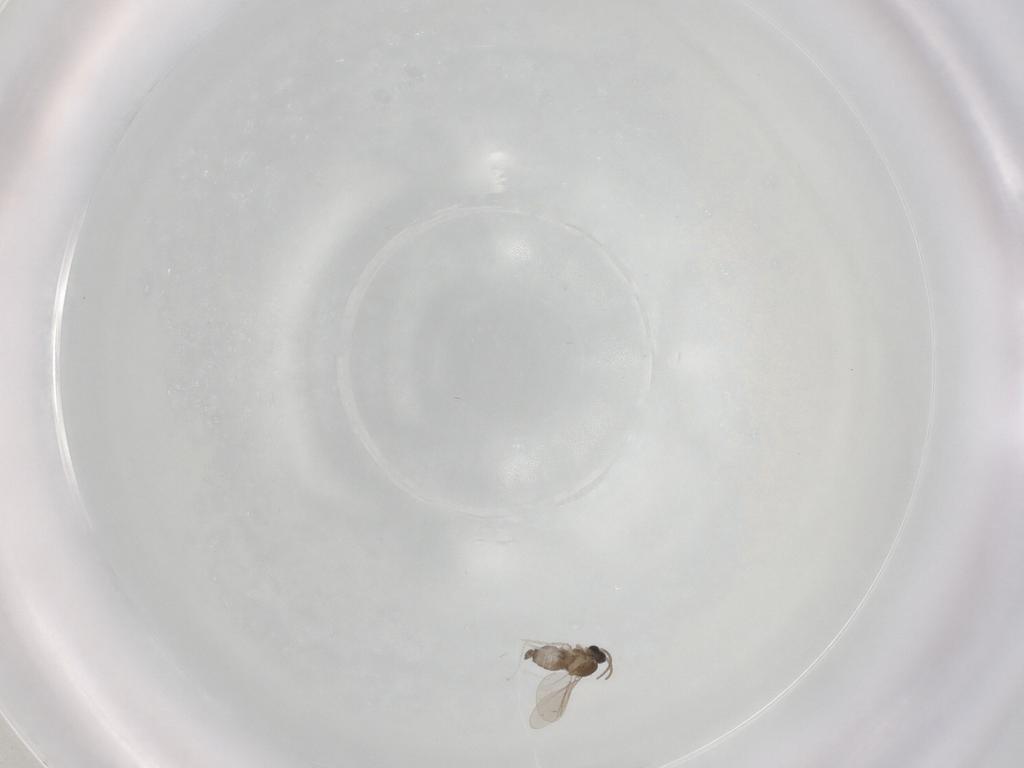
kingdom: Animalia
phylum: Arthropoda
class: Insecta
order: Diptera
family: Cecidomyiidae
